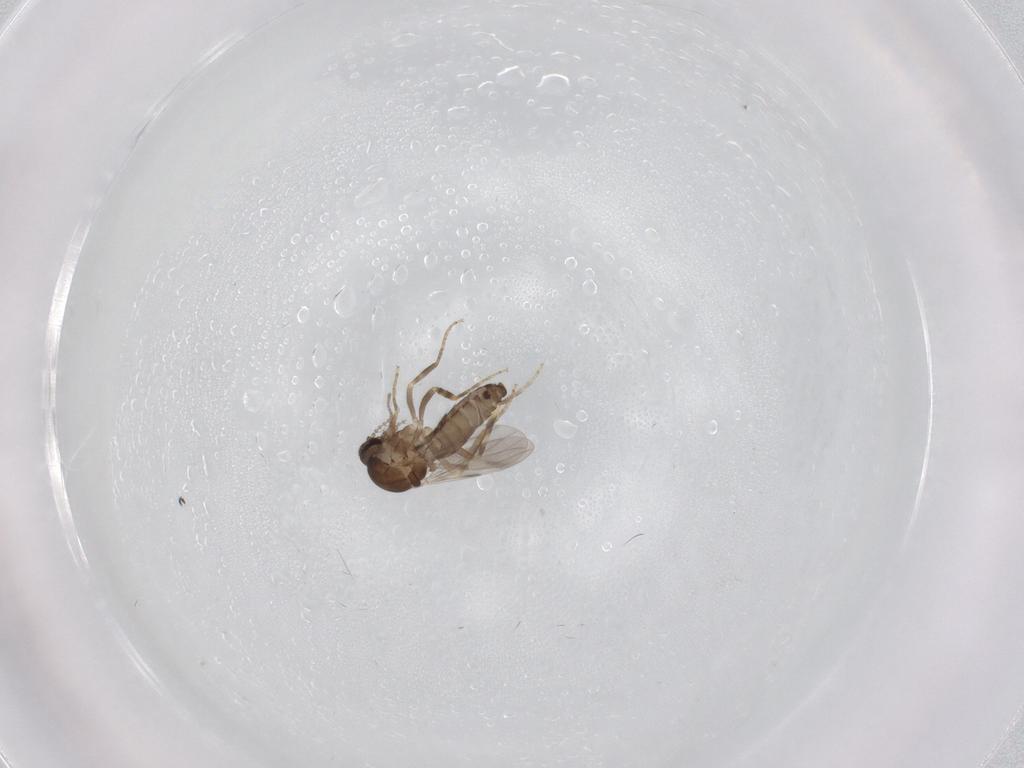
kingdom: Animalia
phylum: Arthropoda
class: Insecta
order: Diptera
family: Ceratopogonidae
